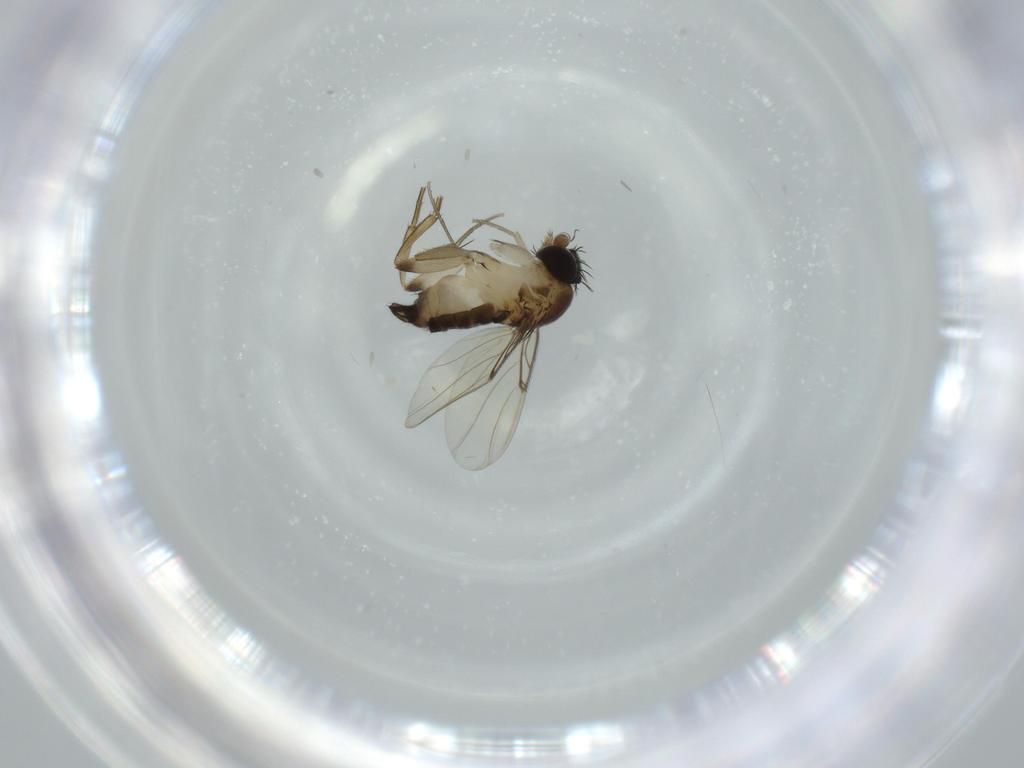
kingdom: Animalia
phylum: Arthropoda
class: Insecta
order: Diptera
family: Phoridae
